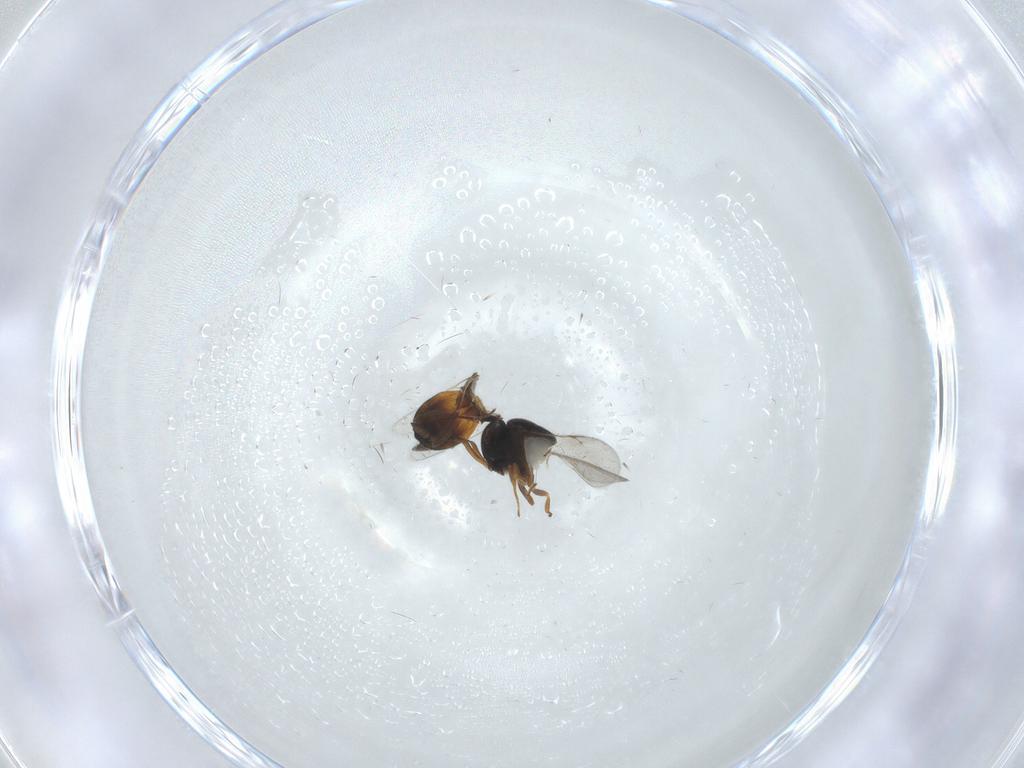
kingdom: Animalia
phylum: Arthropoda
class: Insecta
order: Hymenoptera
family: Scelionidae
